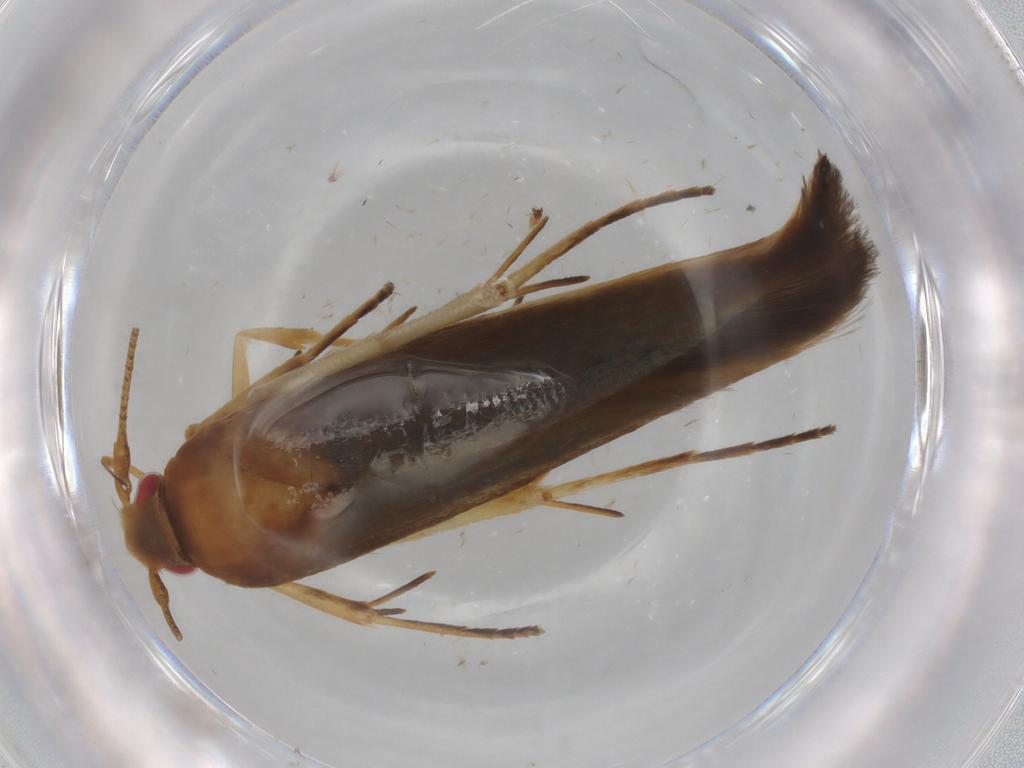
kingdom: Animalia
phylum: Arthropoda
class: Insecta
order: Lepidoptera
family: Cosmopterigidae
